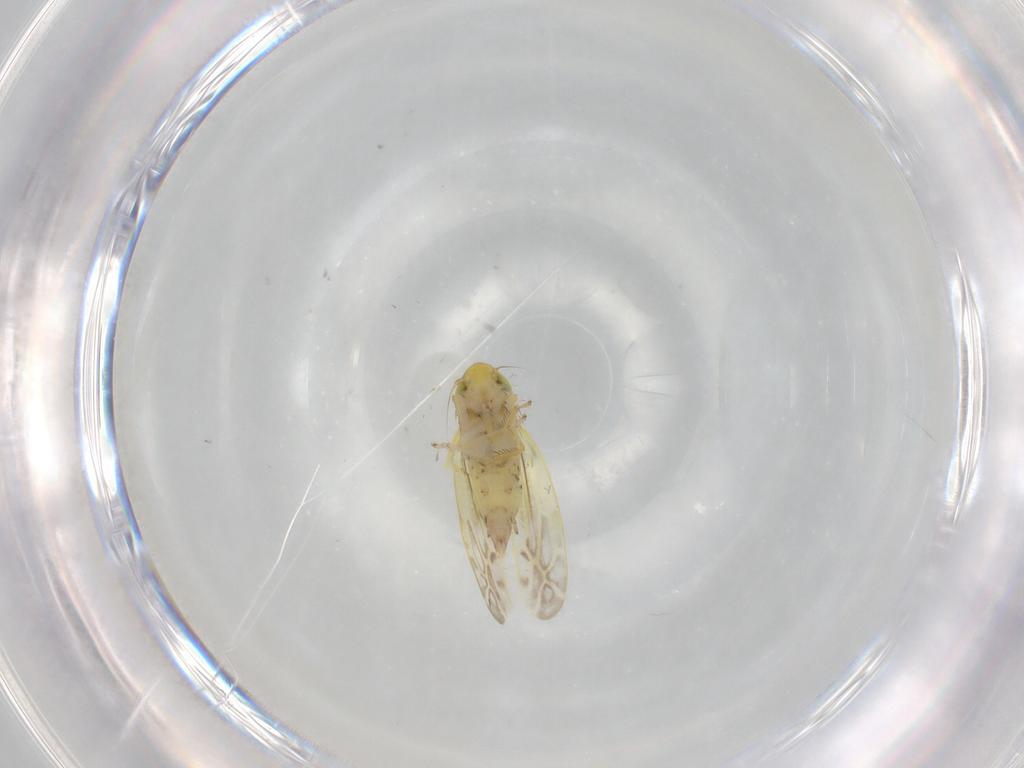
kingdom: Animalia
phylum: Arthropoda
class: Insecta
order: Hemiptera
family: Cicadellidae
